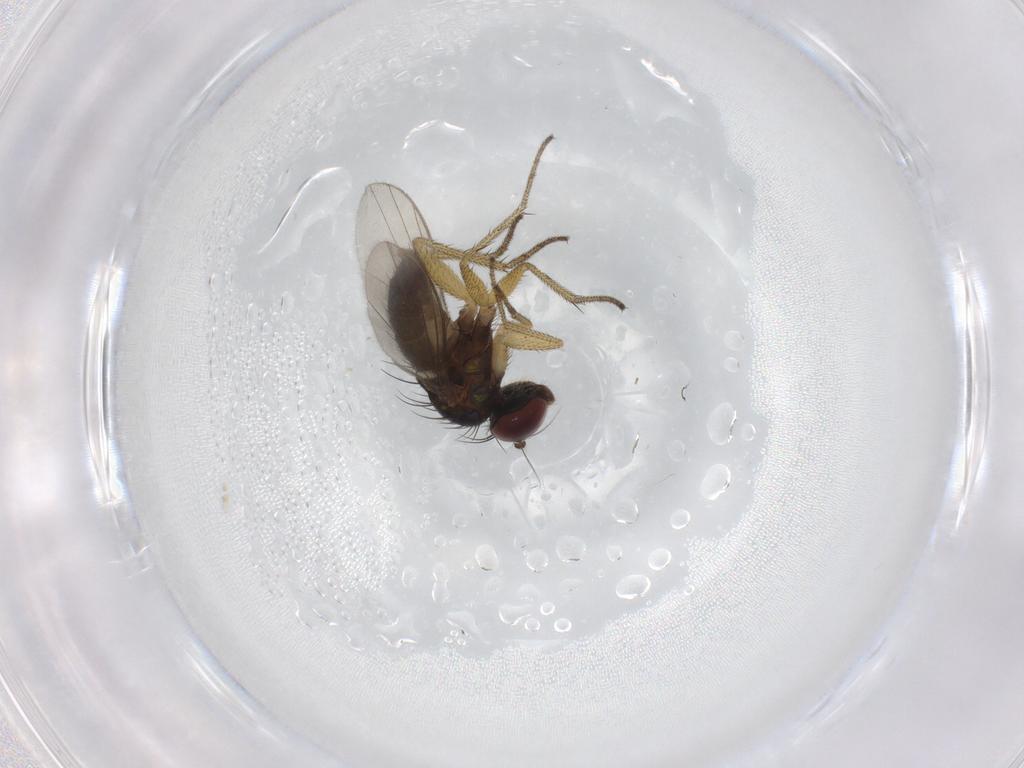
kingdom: Animalia
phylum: Arthropoda
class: Insecta
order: Diptera
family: Dolichopodidae
